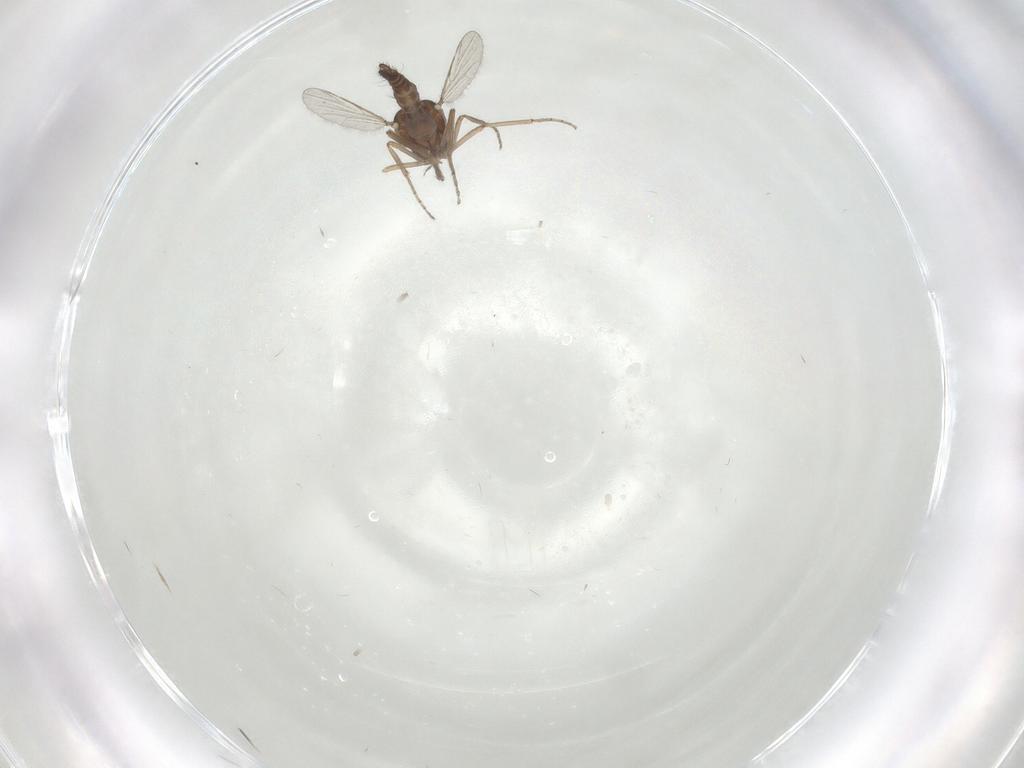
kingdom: Animalia
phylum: Arthropoda
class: Insecta
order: Diptera
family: Ceratopogonidae
